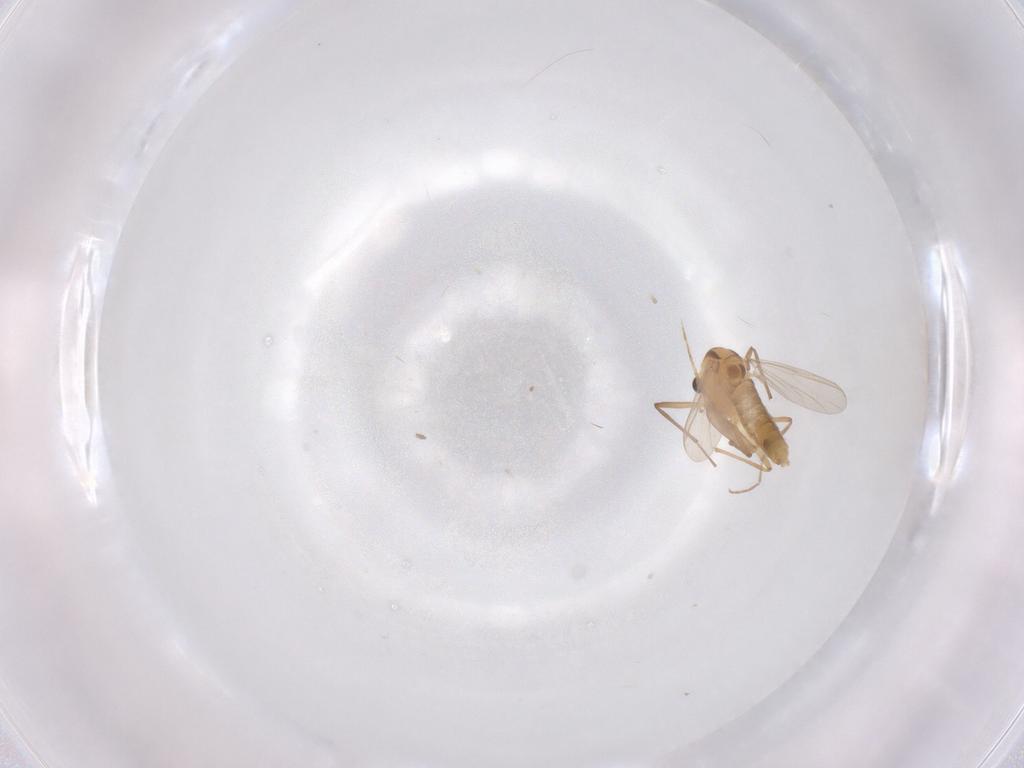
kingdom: Animalia
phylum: Arthropoda
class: Insecta
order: Diptera
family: Chironomidae
